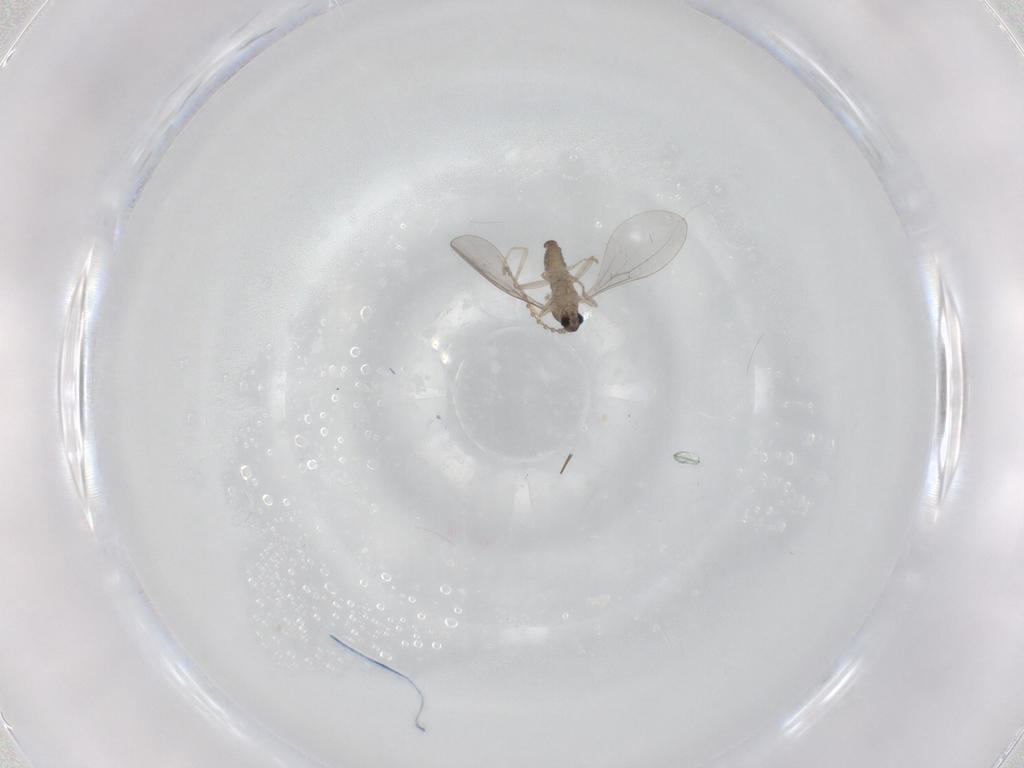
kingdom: Animalia
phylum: Arthropoda
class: Insecta
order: Diptera
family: Cecidomyiidae
